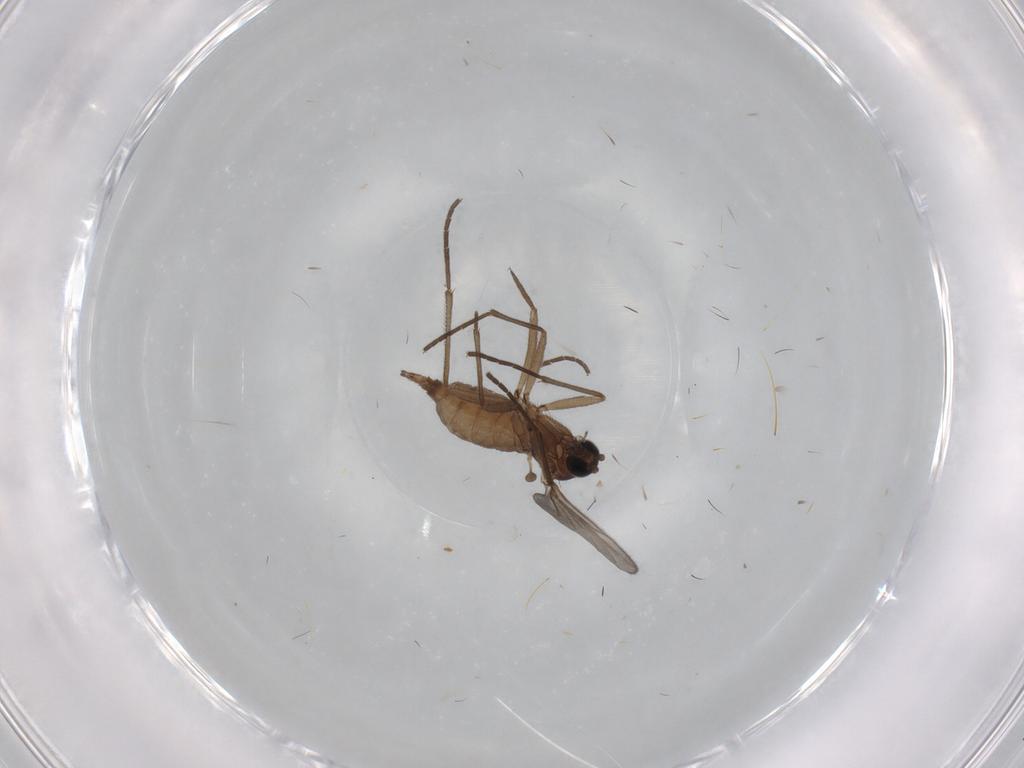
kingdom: Animalia
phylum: Arthropoda
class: Insecta
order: Diptera
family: Sciaridae
